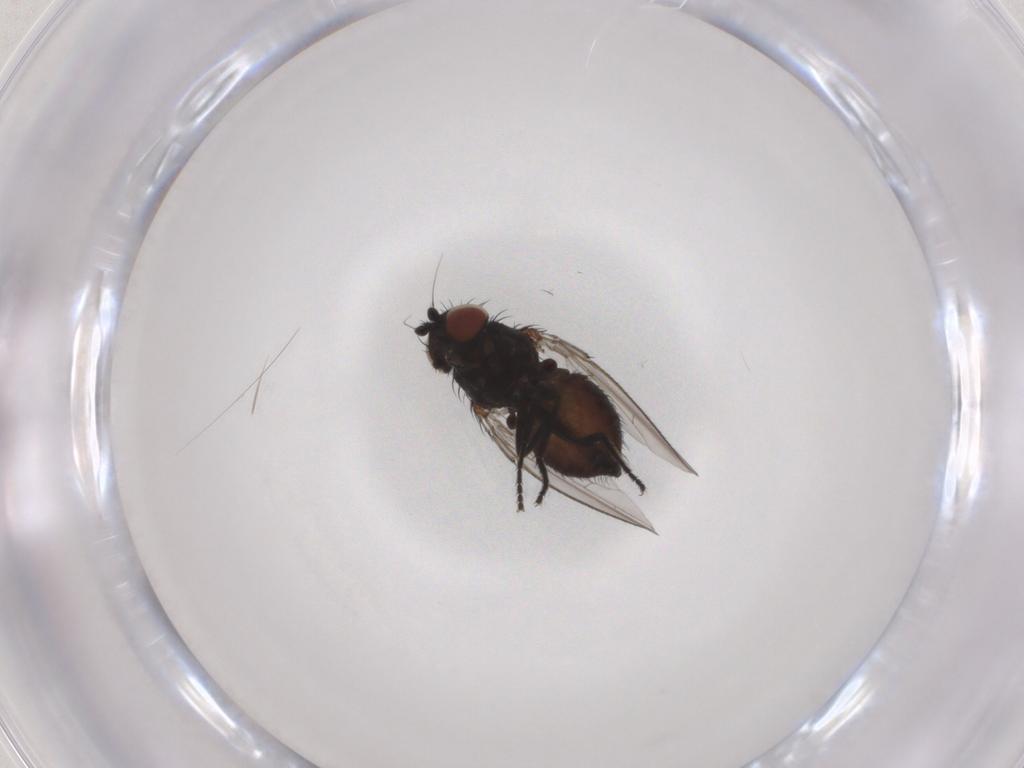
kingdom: Animalia
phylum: Arthropoda
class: Insecta
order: Diptera
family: Milichiidae
